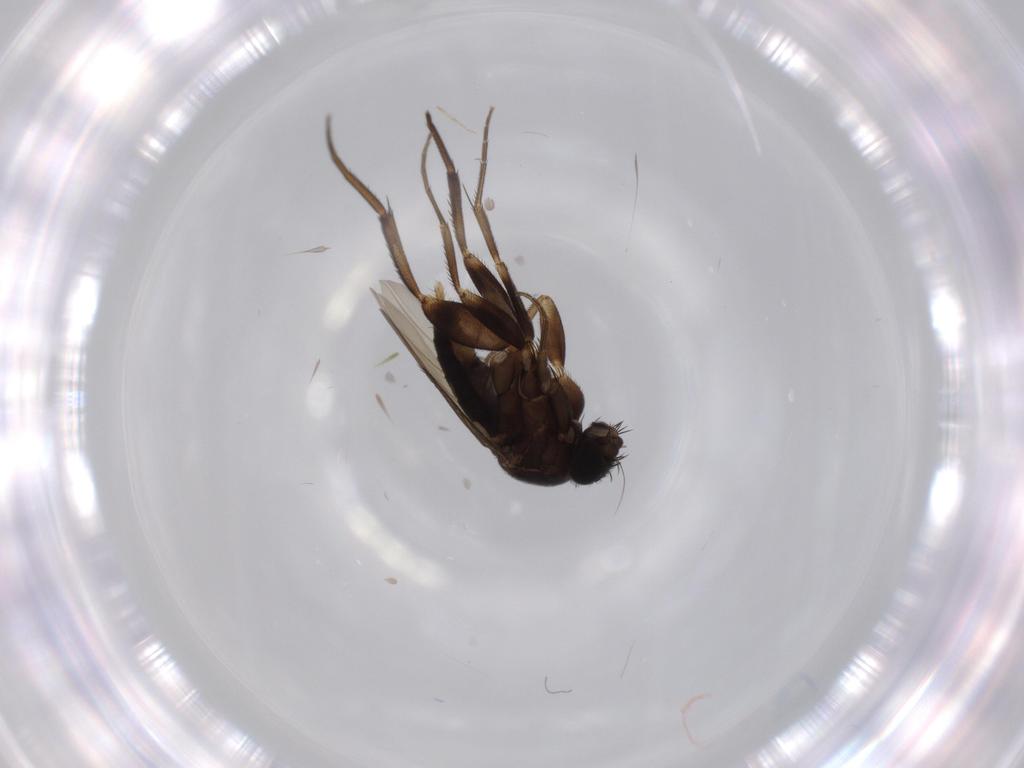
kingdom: Animalia
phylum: Arthropoda
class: Insecta
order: Diptera
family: Phoridae
